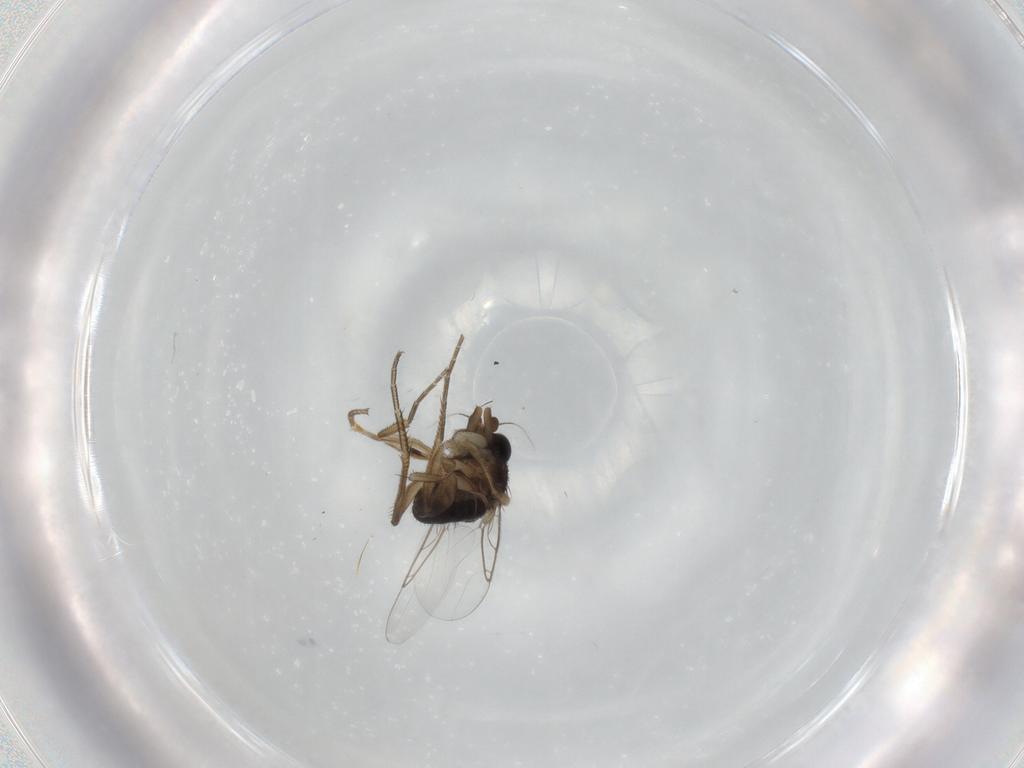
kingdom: Animalia
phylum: Arthropoda
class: Insecta
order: Diptera
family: Phoridae
